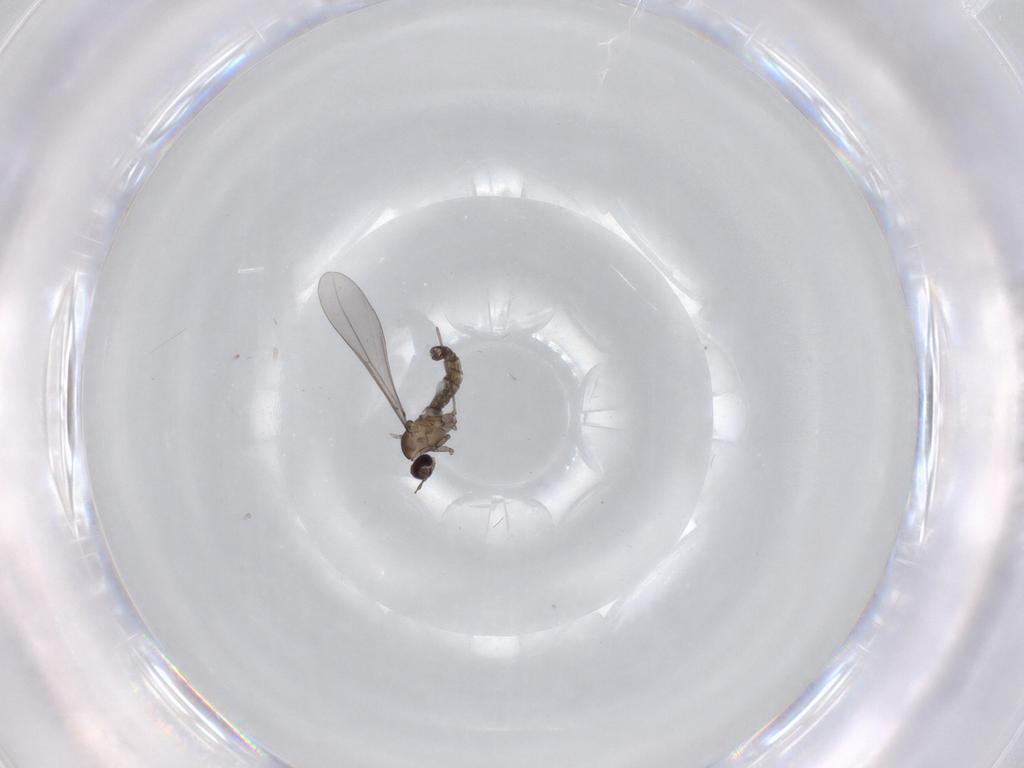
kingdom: Animalia
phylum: Arthropoda
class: Insecta
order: Diptera
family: Cecidomyiidae
